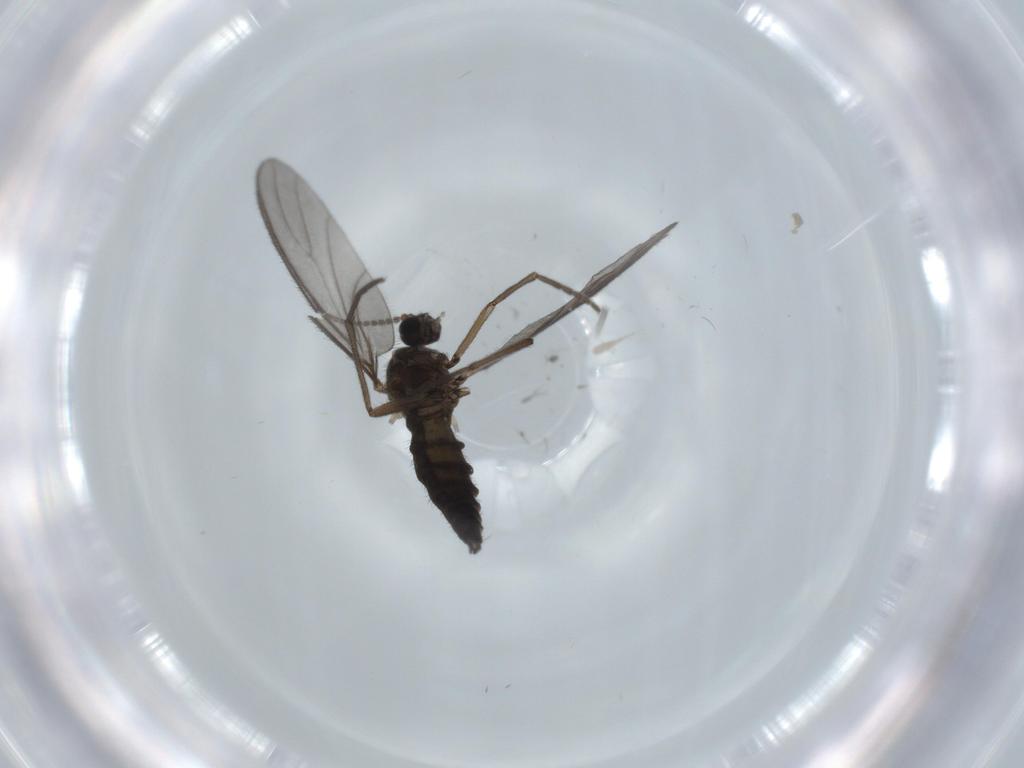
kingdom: Animalia
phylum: Arthropoda
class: Insecta
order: Diptera
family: Sciaridae
